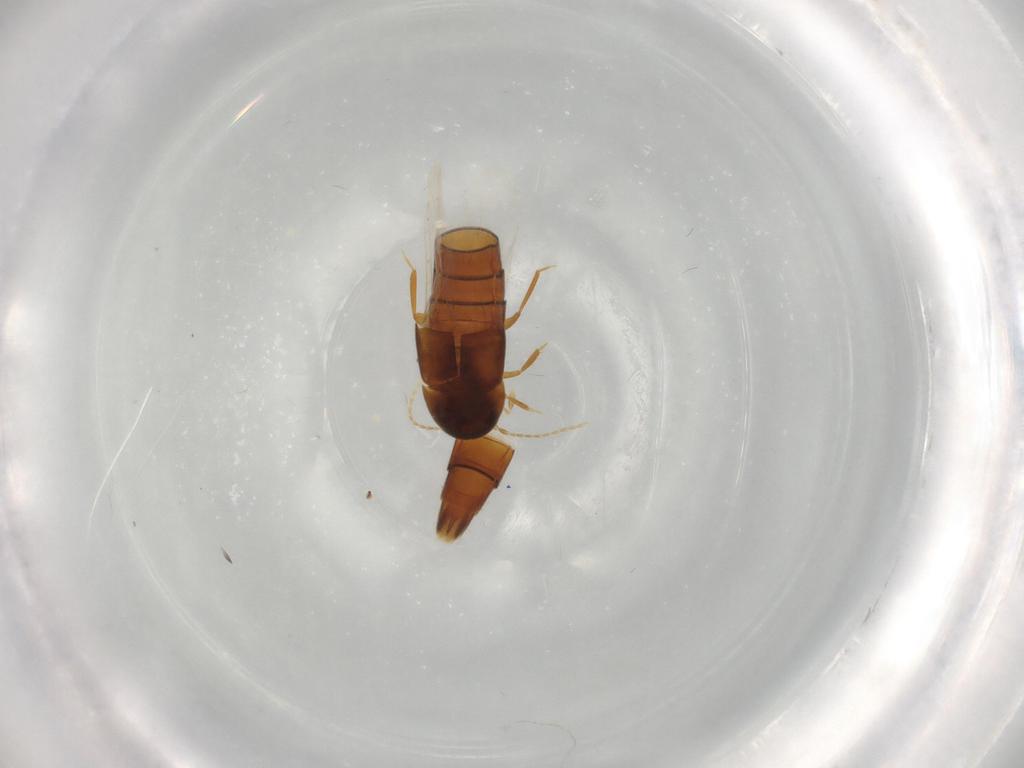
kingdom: Animalia
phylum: Arthropoda
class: Insecta
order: Coleoptera
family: Staphylinidae
